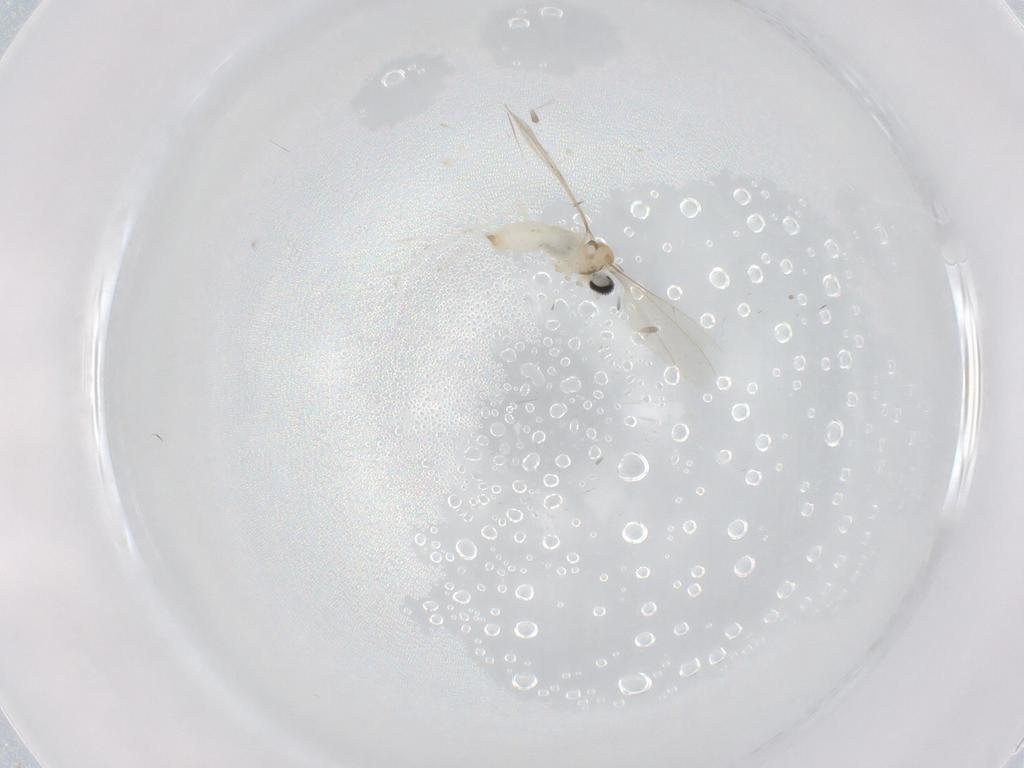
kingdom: Animalia
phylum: Arthropoda
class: Insecta
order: Diptera
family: Cecidomyiidae
